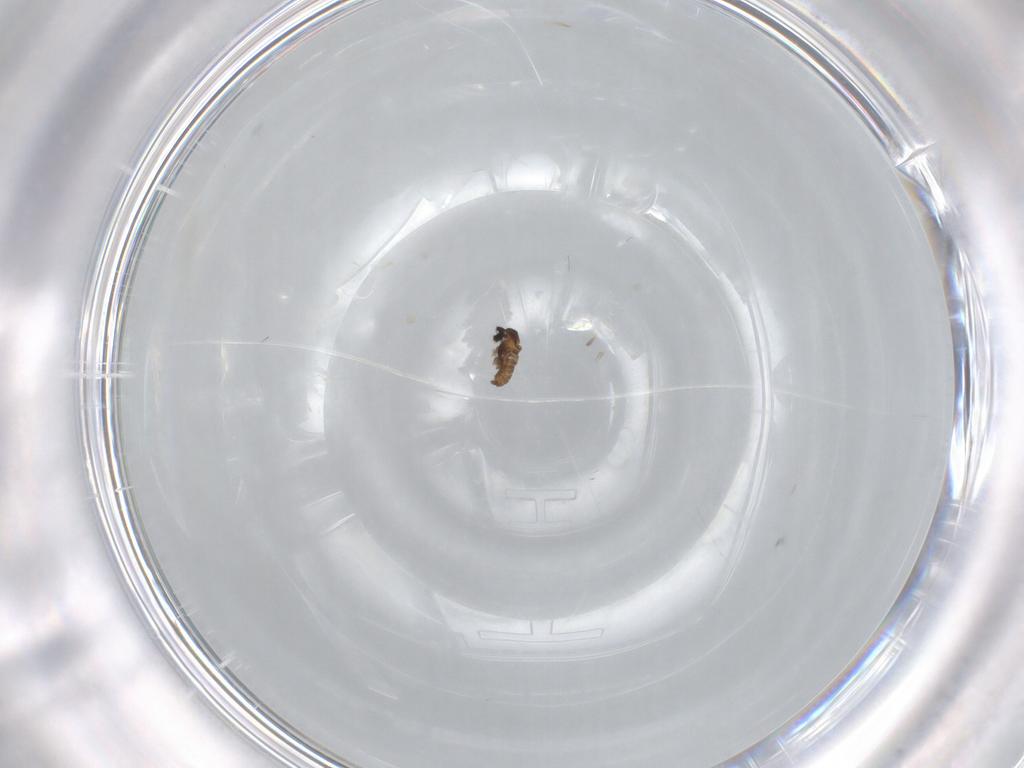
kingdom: Animalia
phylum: Arthropoda
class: Insecta
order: Diptera
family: Cecidomyiidae
